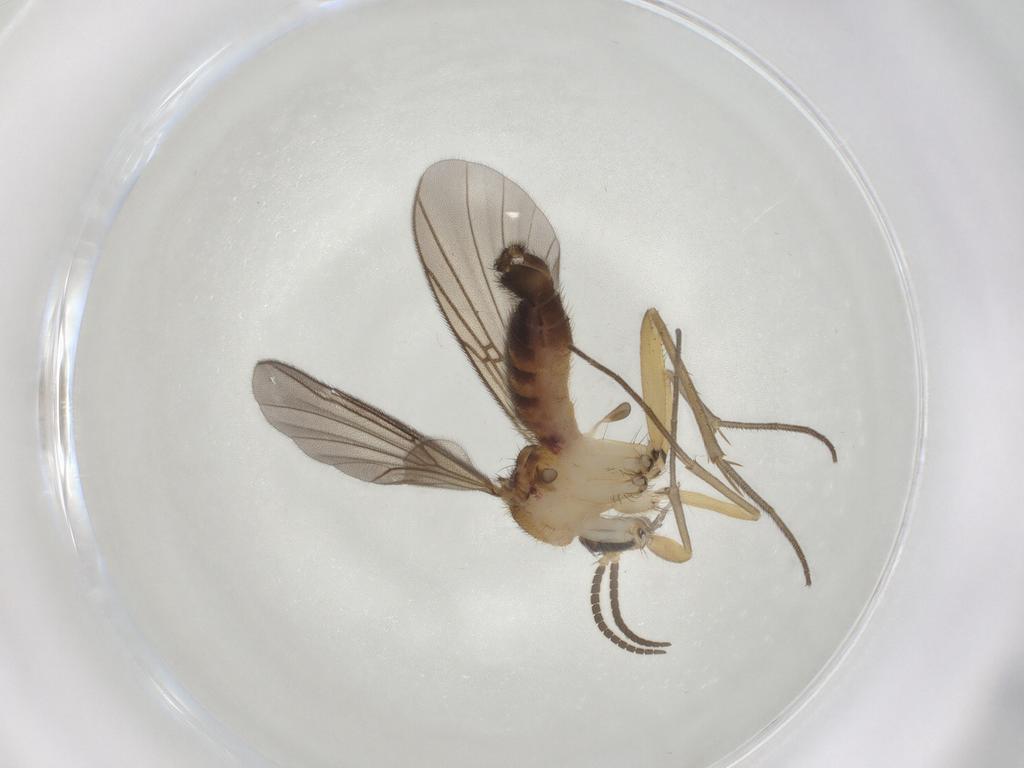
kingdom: Animalia
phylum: Arthropoda
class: Insecta
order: Diptera
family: Mycetophilidae
